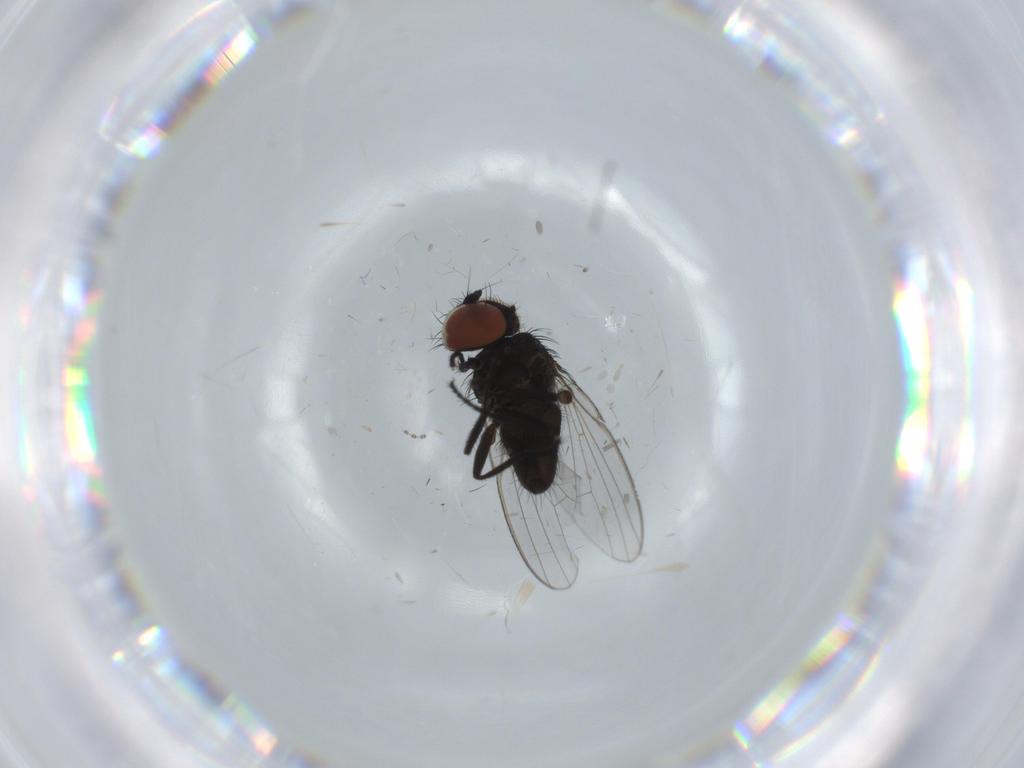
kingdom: Animalia
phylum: Arthropoda
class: Insecta
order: Diptera
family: Milichiidae
